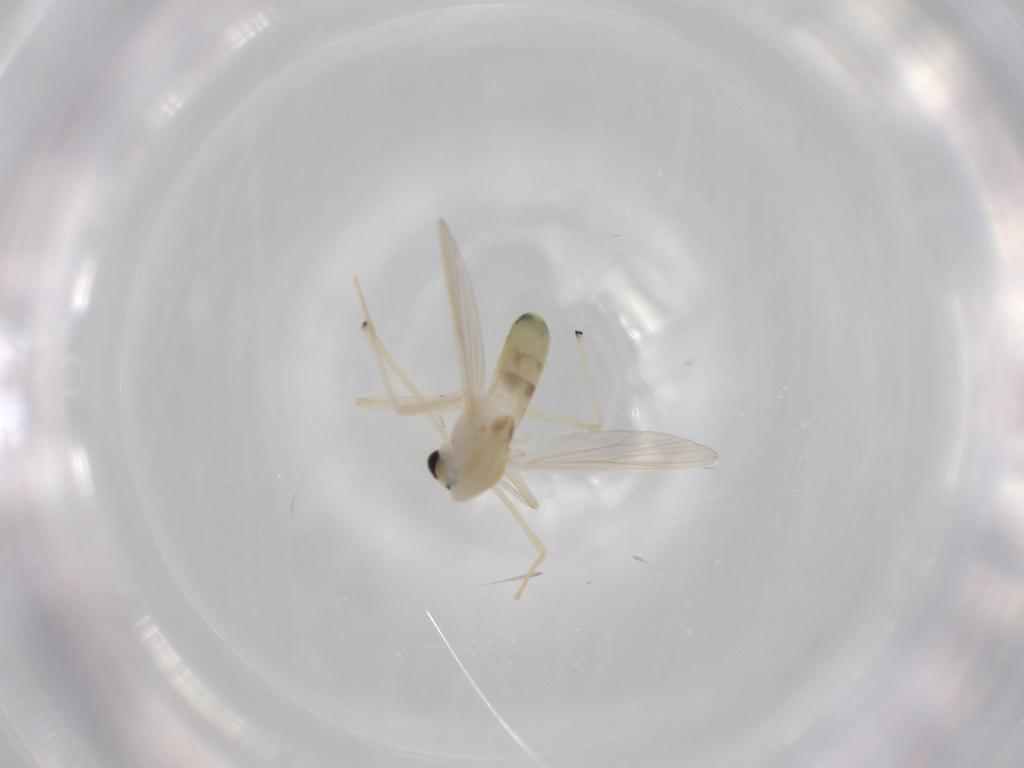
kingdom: Animalia
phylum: Arthropoda
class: Insecta
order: Diptera
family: Chironomidae
